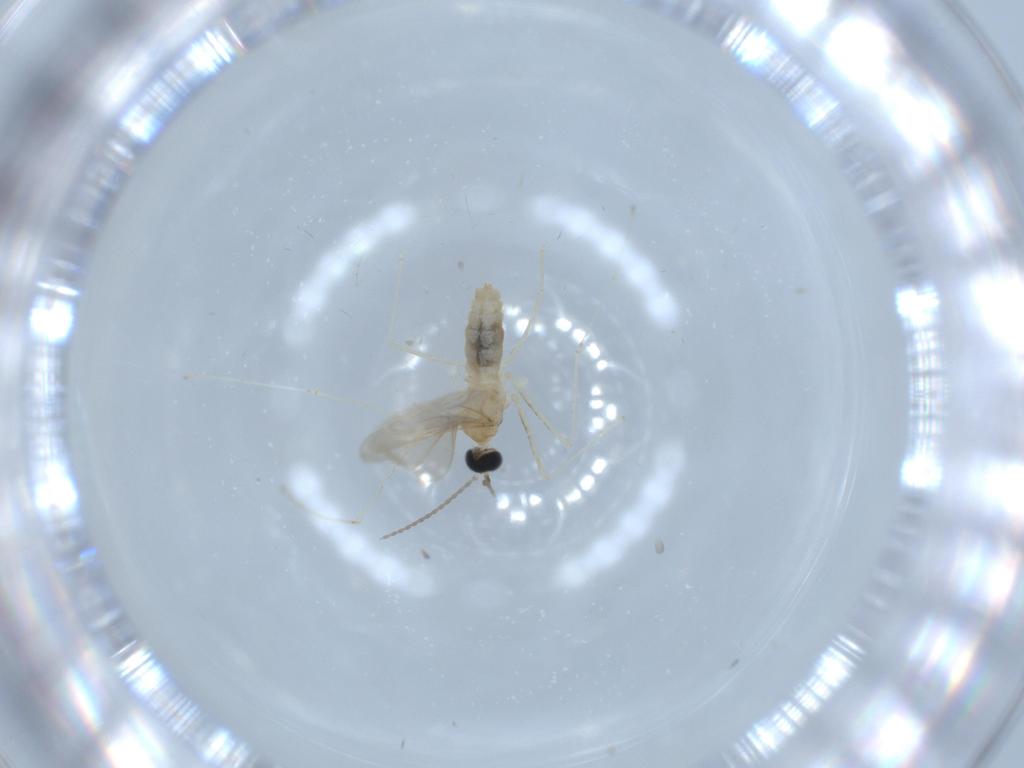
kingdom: Animalia
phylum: Arthropoda
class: Insecta
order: Diptera
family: Cecidomyiidae
